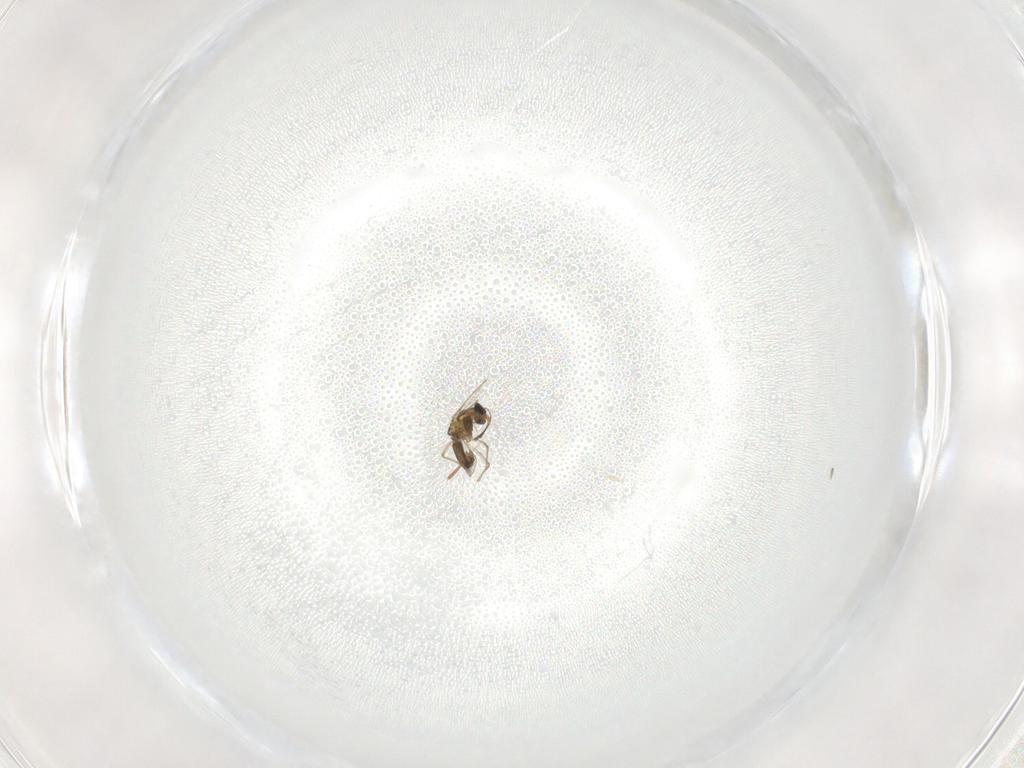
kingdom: Animalia
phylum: Arthropoda
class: Insecta
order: Diptera
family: Chironomidae
